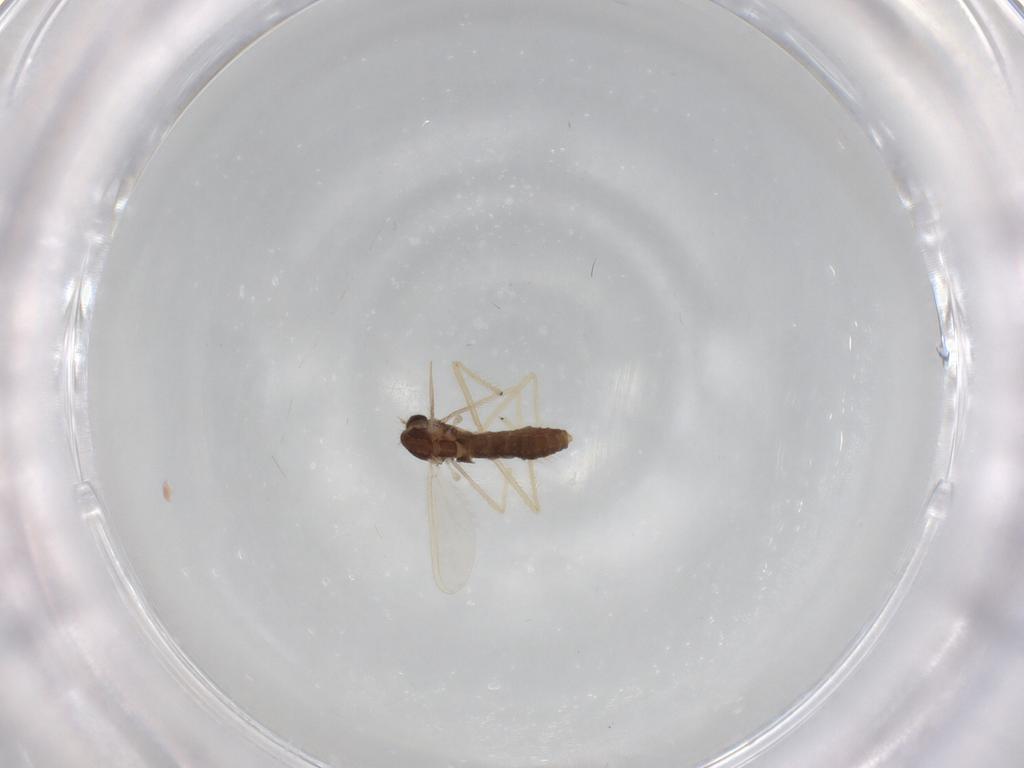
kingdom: Animalia
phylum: Arthropoda
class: Insecta
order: Diptera
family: Chironomidae
